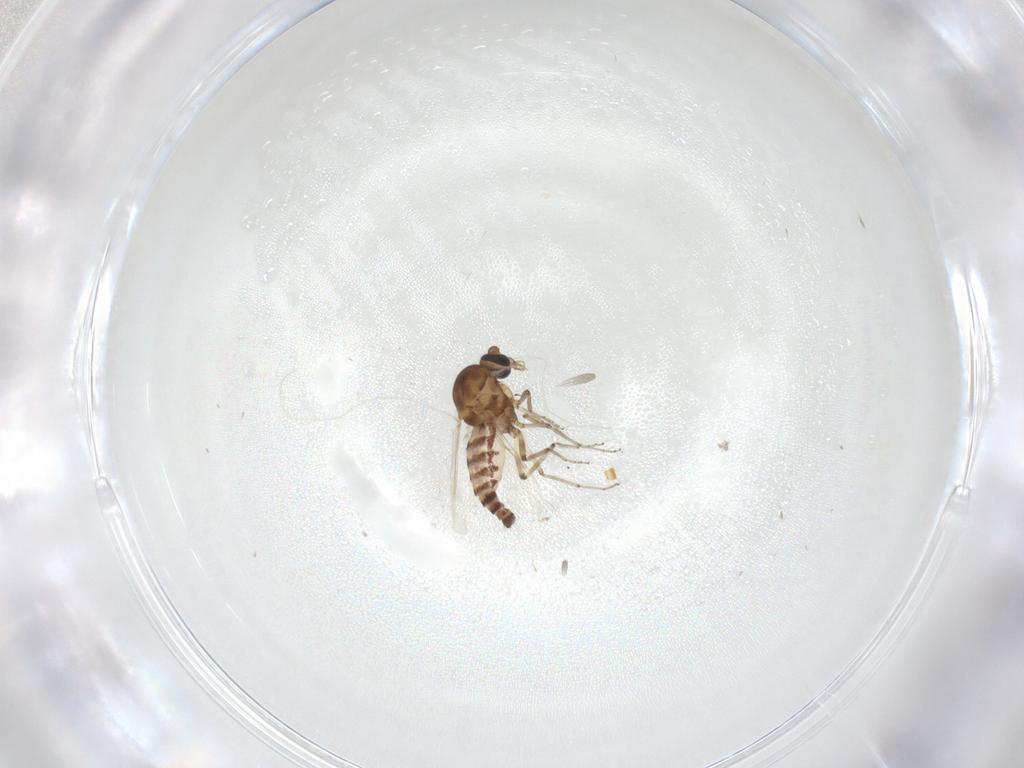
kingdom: Animalia
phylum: Arthropoda
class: Insecta
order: Diptera
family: Ceratopogonidae
